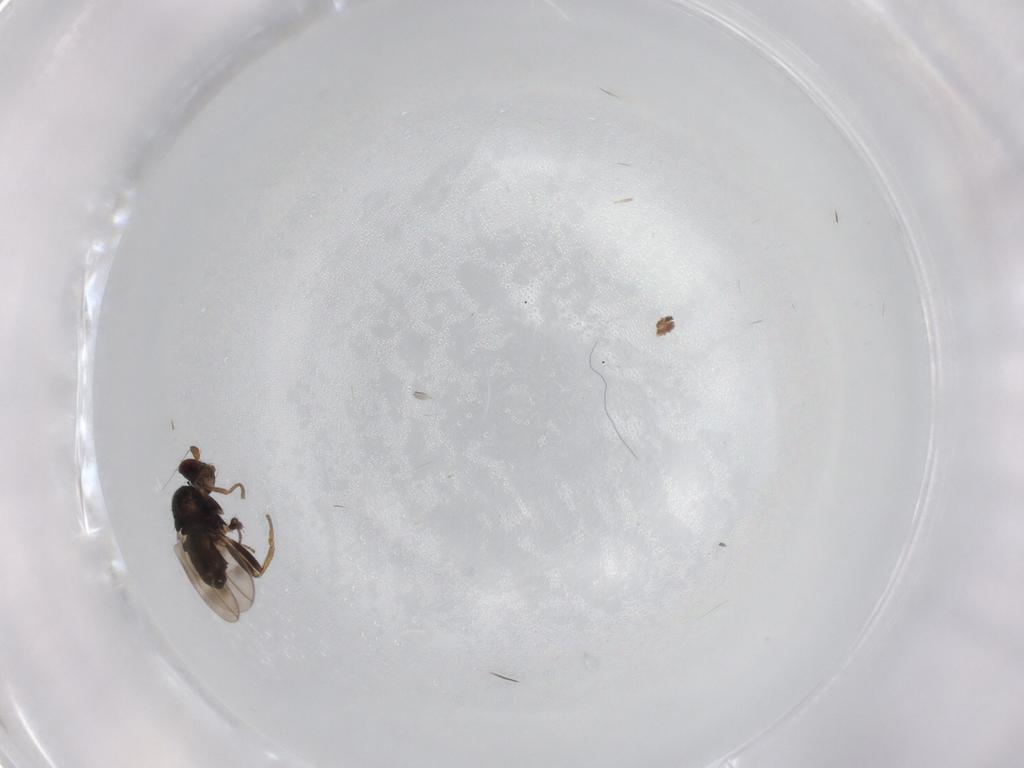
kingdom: Animalia
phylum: Arthropoda
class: Insecta
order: Diptera
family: Sphaeroceridae
